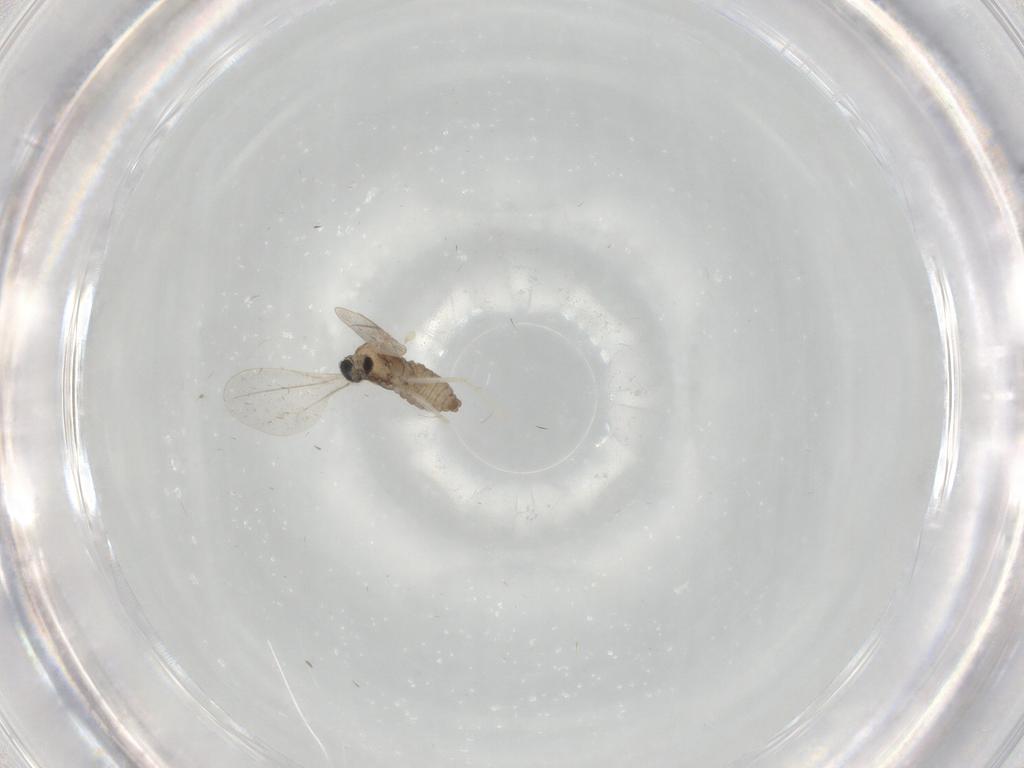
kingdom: Animalia
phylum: Arthropoda
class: Insecta
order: Diptera
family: Cecidomyiidae
